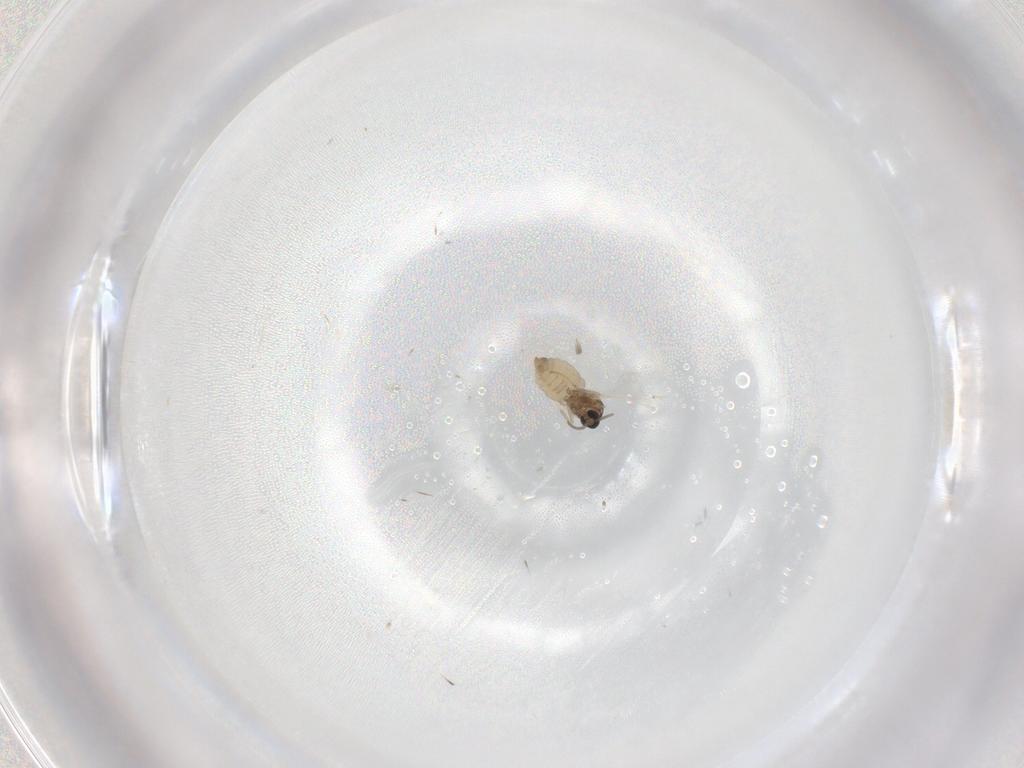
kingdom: Animalia
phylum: Arthropoda
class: Insecta
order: Diptera
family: Cecidomyiidae
